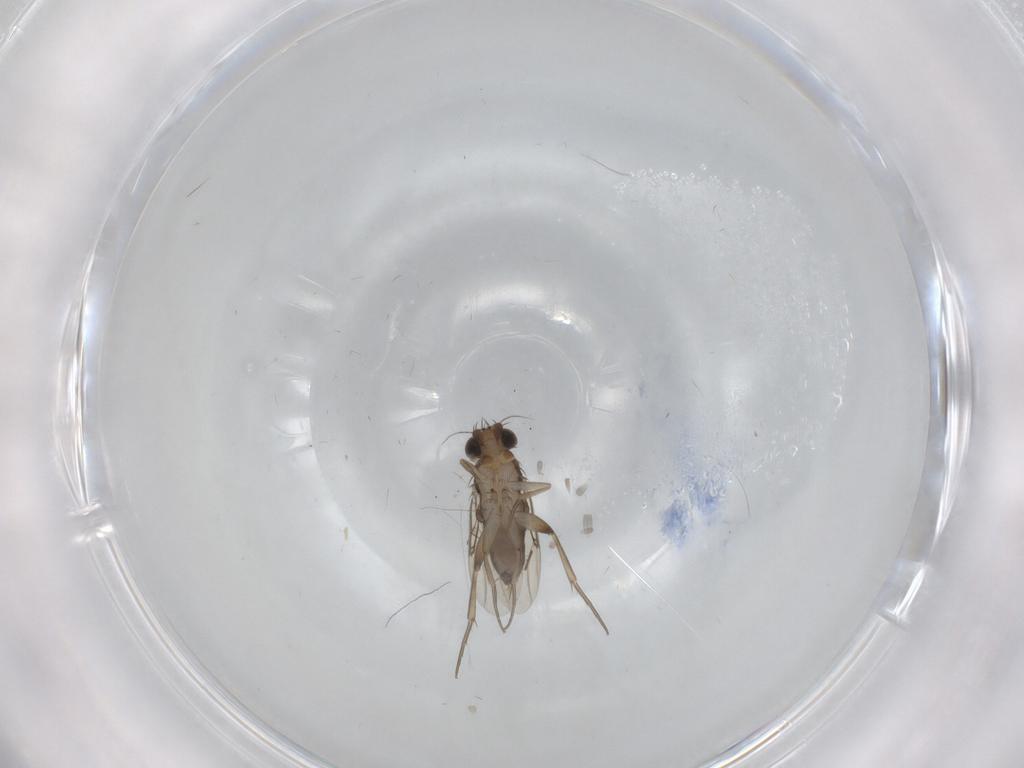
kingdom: Animalia
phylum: Arthropoda
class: Insecta
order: Diptera
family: Phoridae
